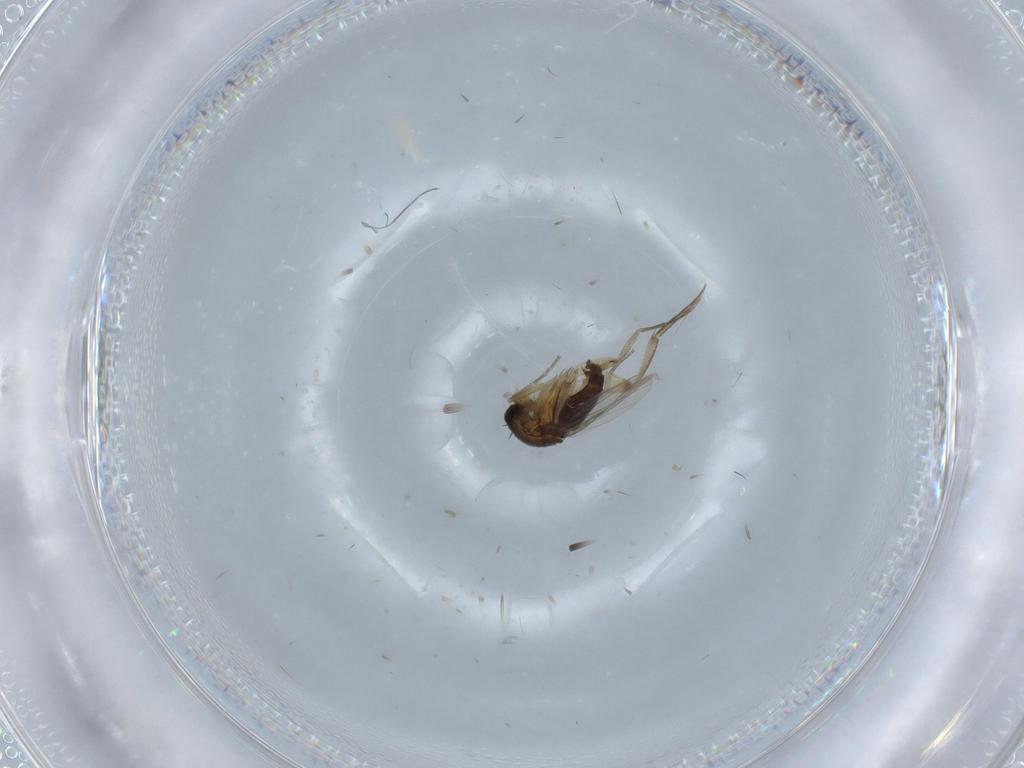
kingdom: Animalia
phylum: Arthropoda
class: Insecta
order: Diptera
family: Phoridae
